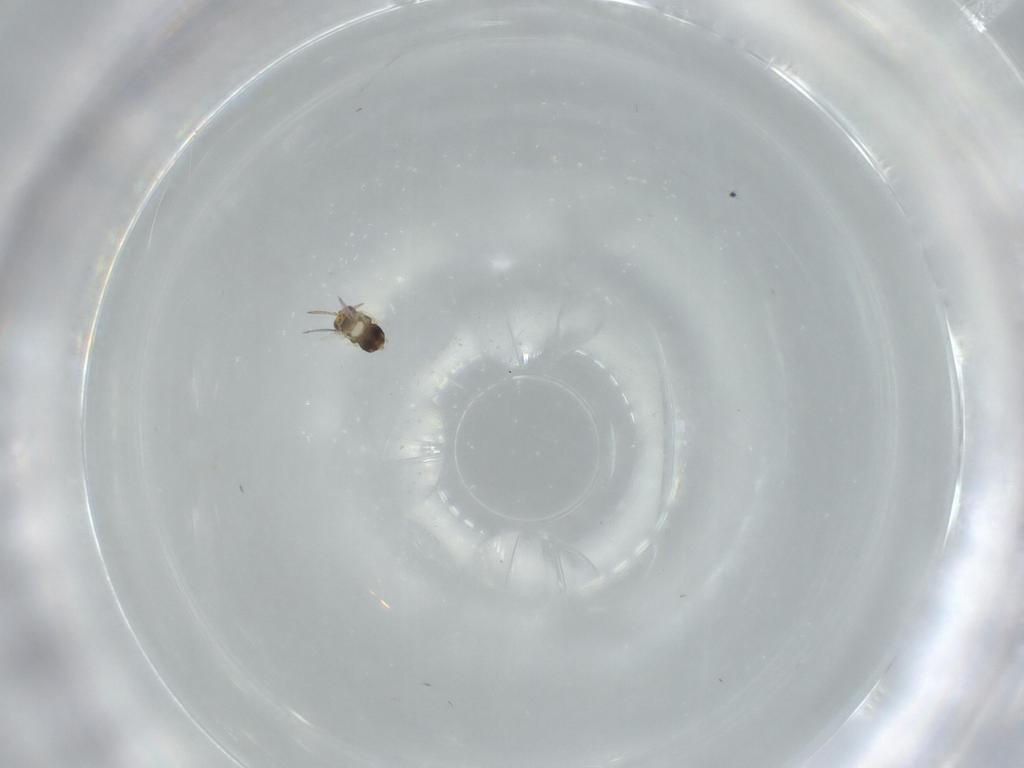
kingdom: Animalia
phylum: Arthropoda
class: Insecta
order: Hymenoptera
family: Aphelinidae
